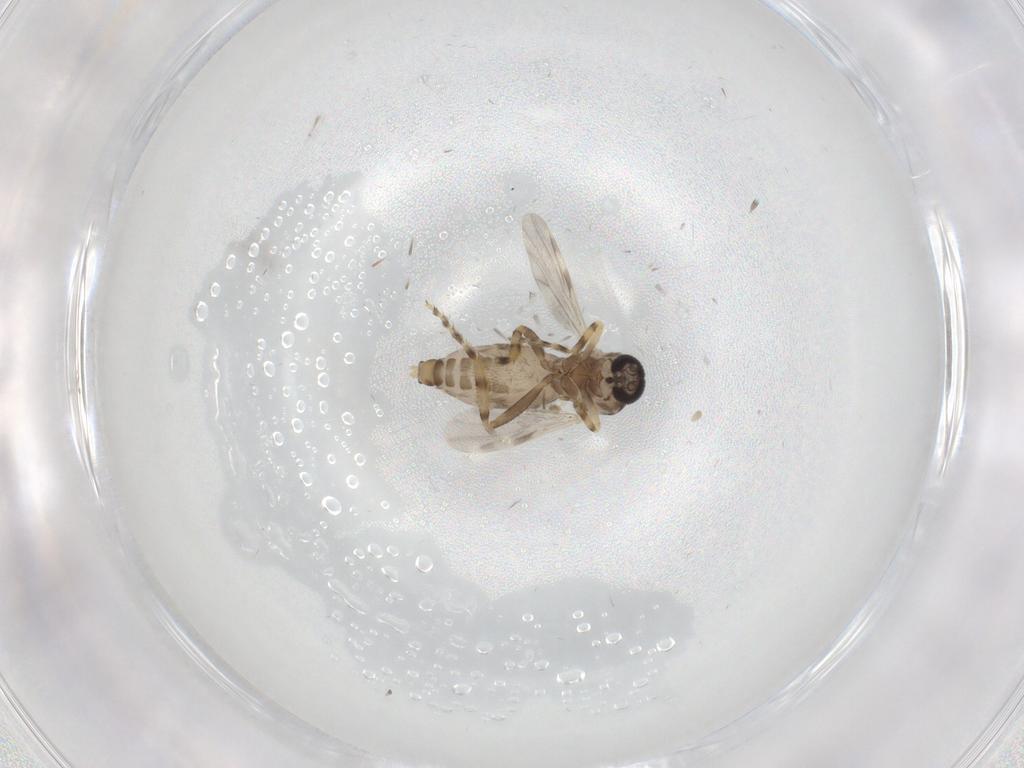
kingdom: Animalia
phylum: Arthropoda
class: Insecta
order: Diptera
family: Ceratopogonidae
